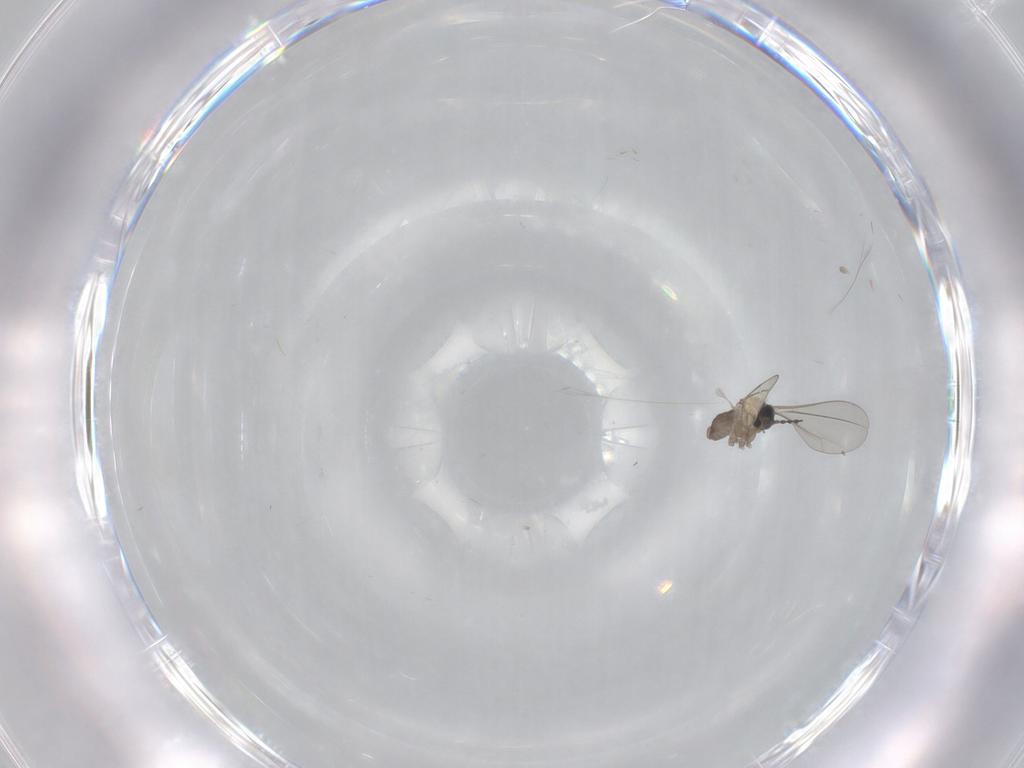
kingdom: Animalia
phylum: Arthropoda
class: Insecta
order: Diptera
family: Cecidomyiidae
